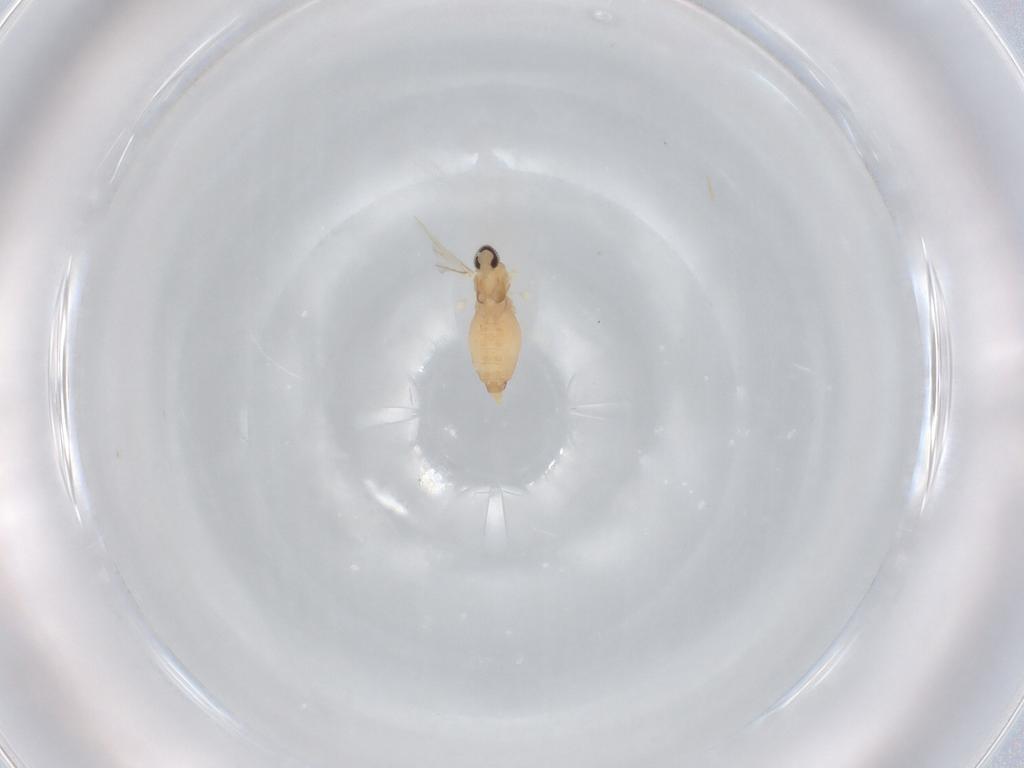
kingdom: Animalia
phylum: Arthropoda
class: Insecta
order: Diptera
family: Cecidomyiidae
